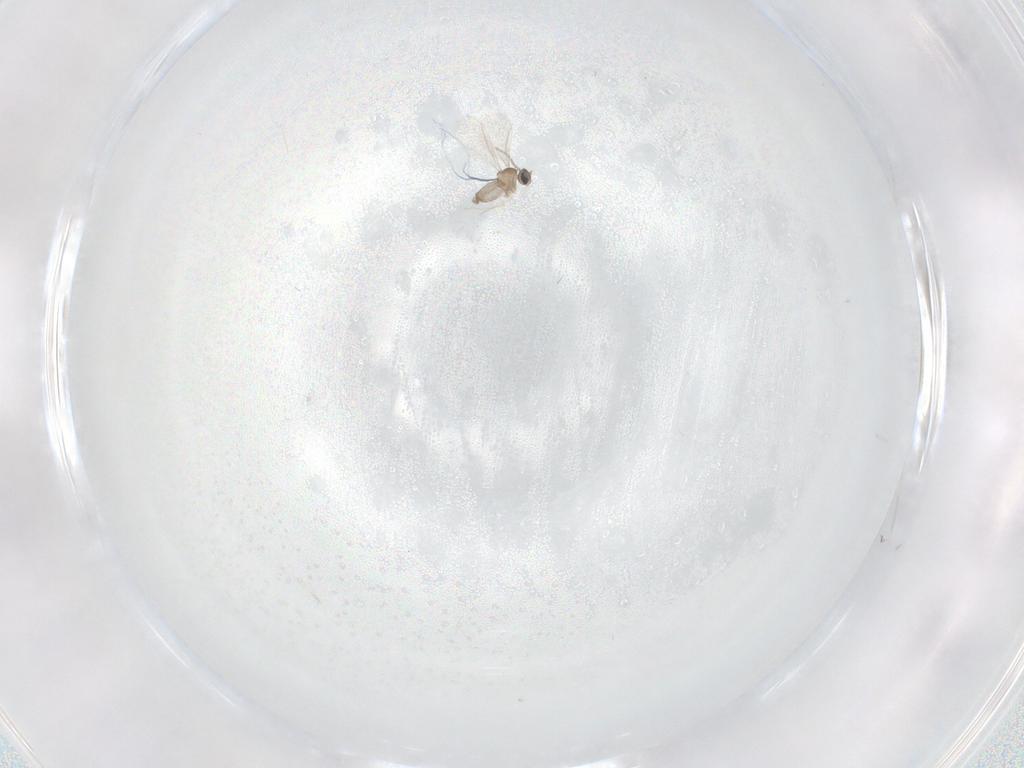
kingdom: Animalia
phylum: Arthropoda
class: Insecta
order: Diptera
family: Cecidomyiidae
